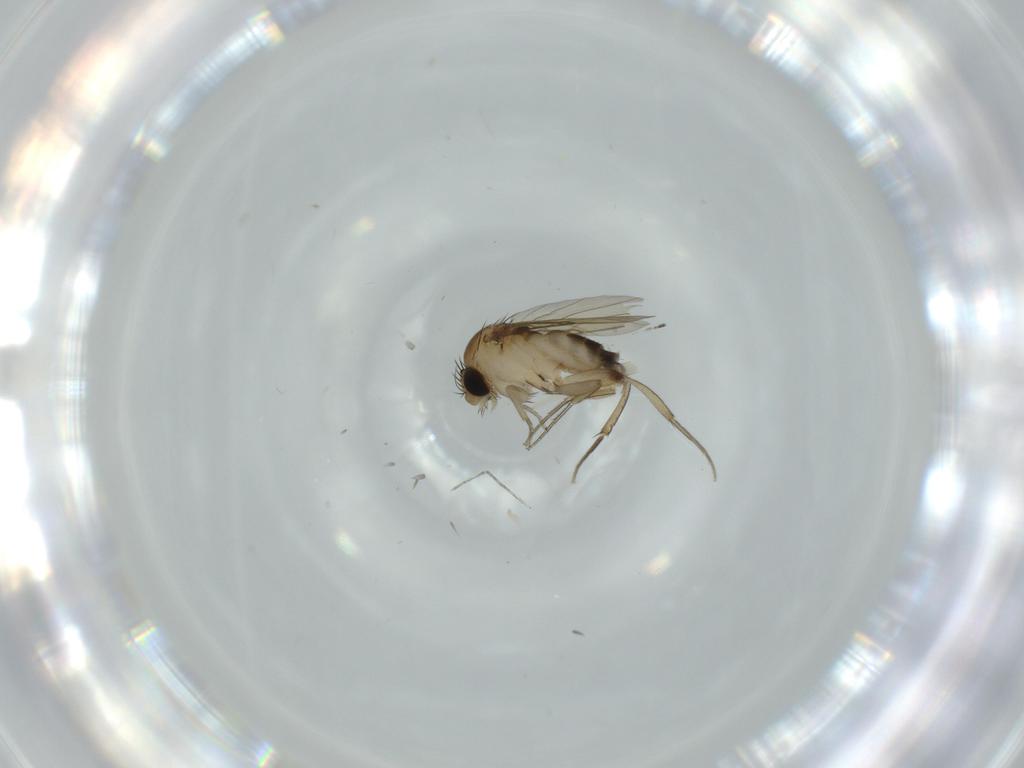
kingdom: Animalia
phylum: Arthropoda
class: Insecta
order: Diptera
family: Phoridae
